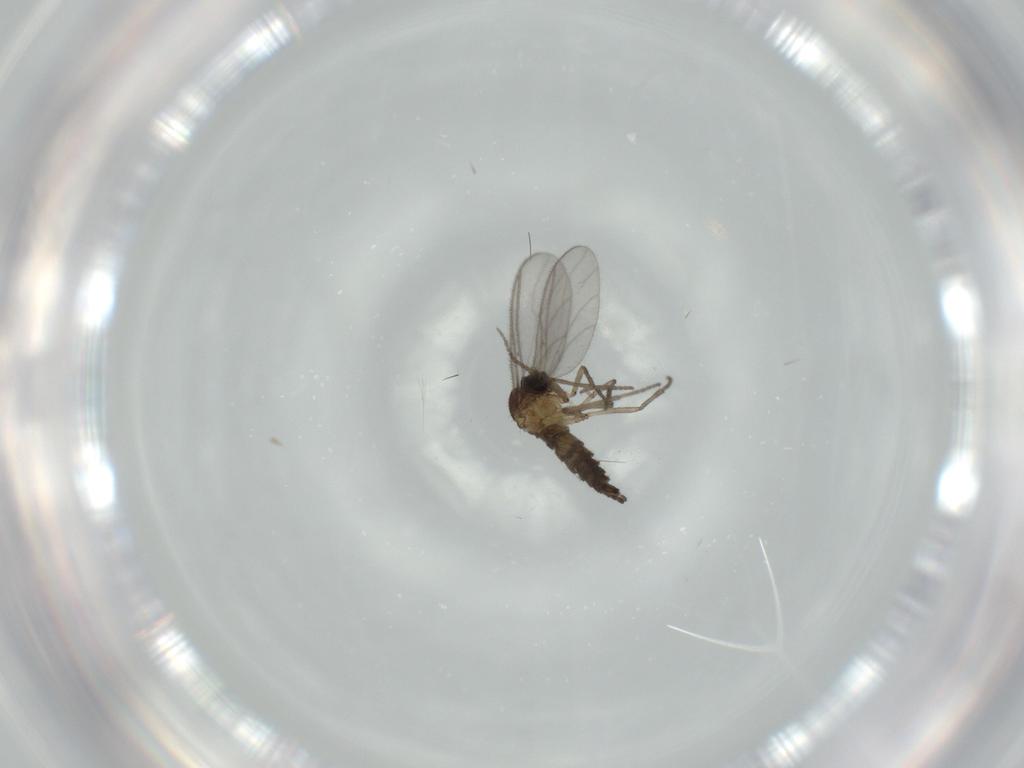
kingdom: Animalia
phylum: Arthropoda
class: Insecta
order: Diptera
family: Sciaridae
